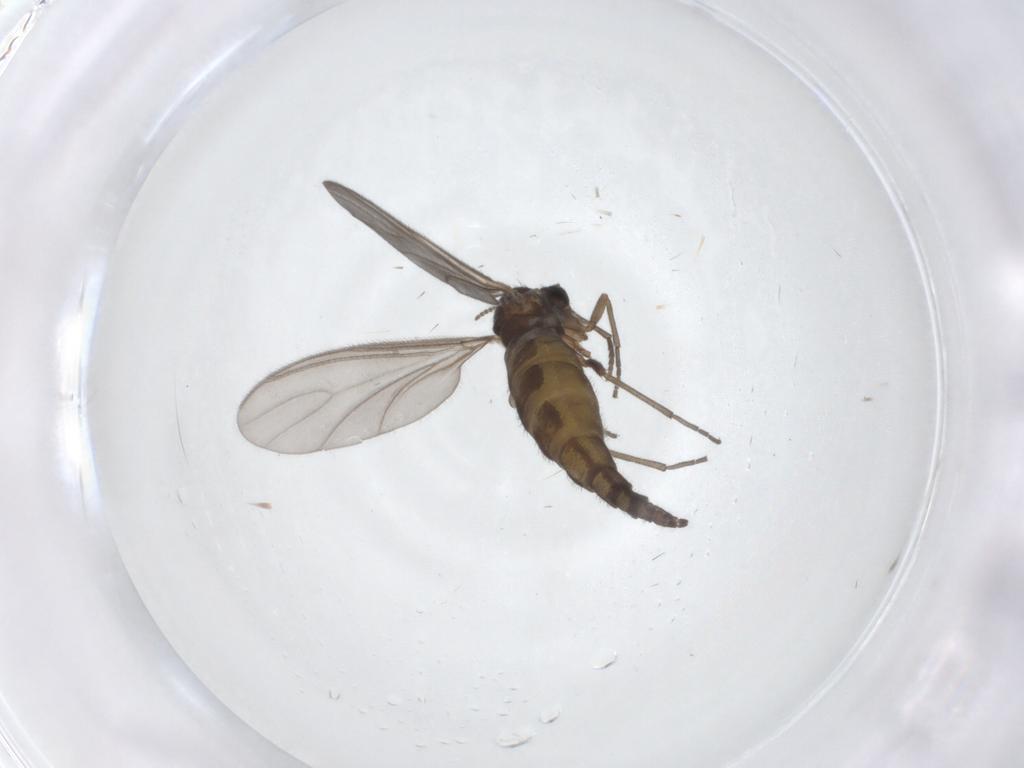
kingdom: Animalia
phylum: Arthropoda
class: Insecta
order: Diptera
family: Sciaridae
